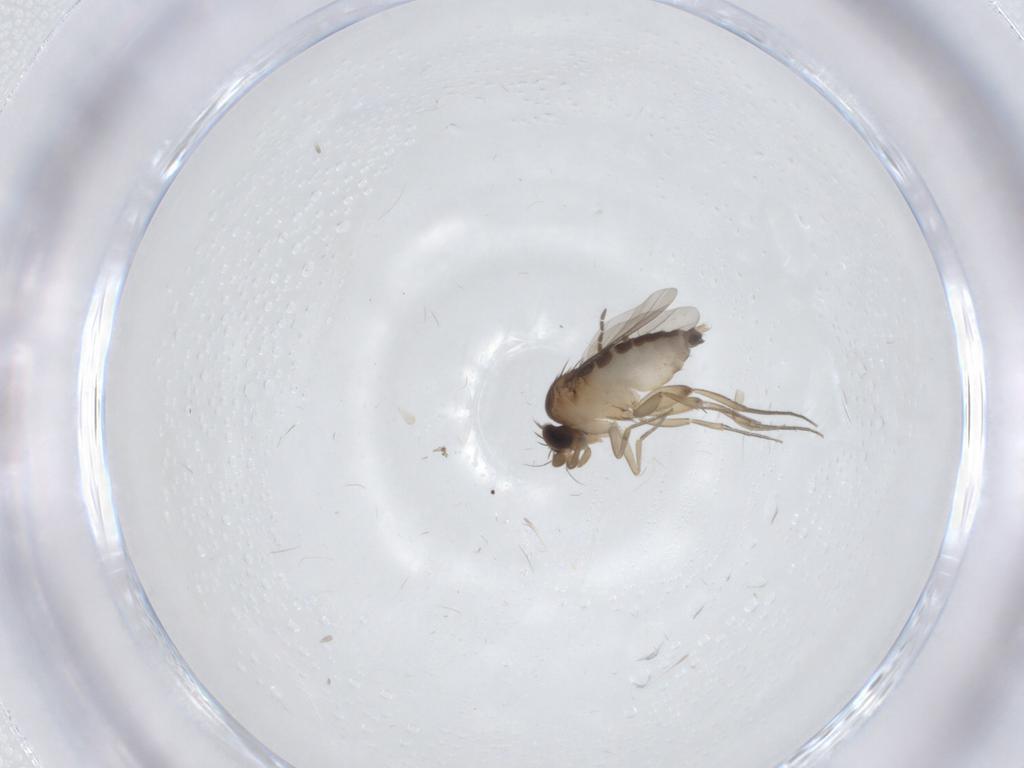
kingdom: Animalia
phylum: Arthropoda
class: Insecta
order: Diptera
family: Phoridae
